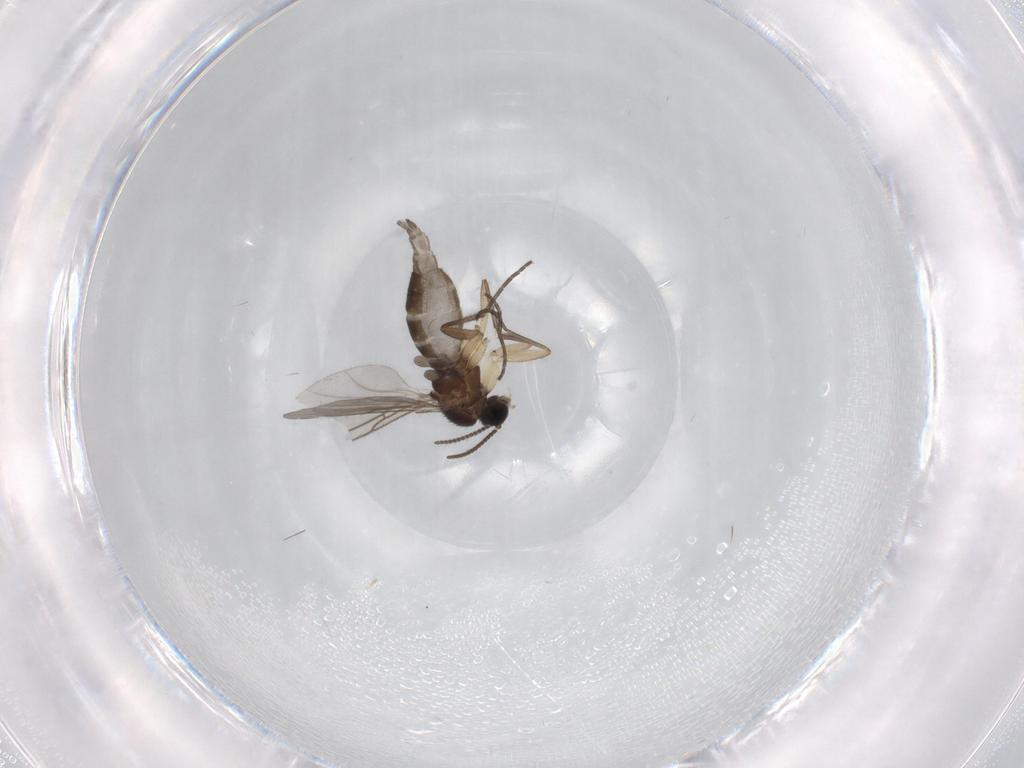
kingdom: Animalia
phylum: Arthropoda
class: Insecta
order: Diptera
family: Sciaridae
